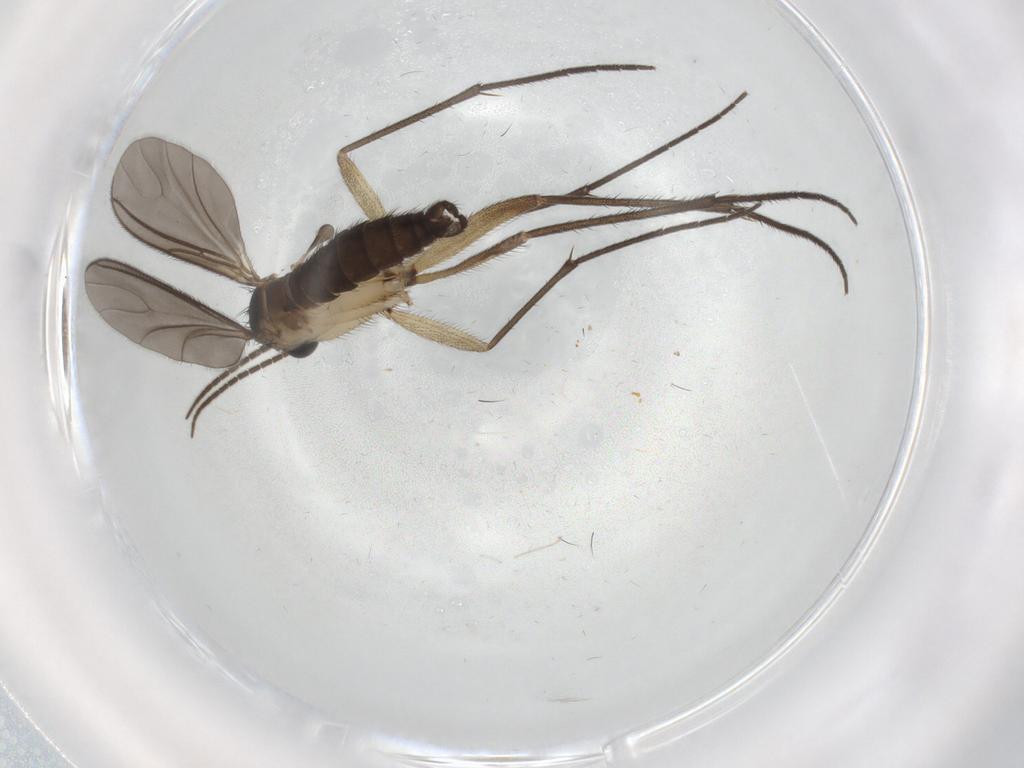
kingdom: Animalia
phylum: Arthropoda
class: Insecta
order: Diptera
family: Sciaridae
